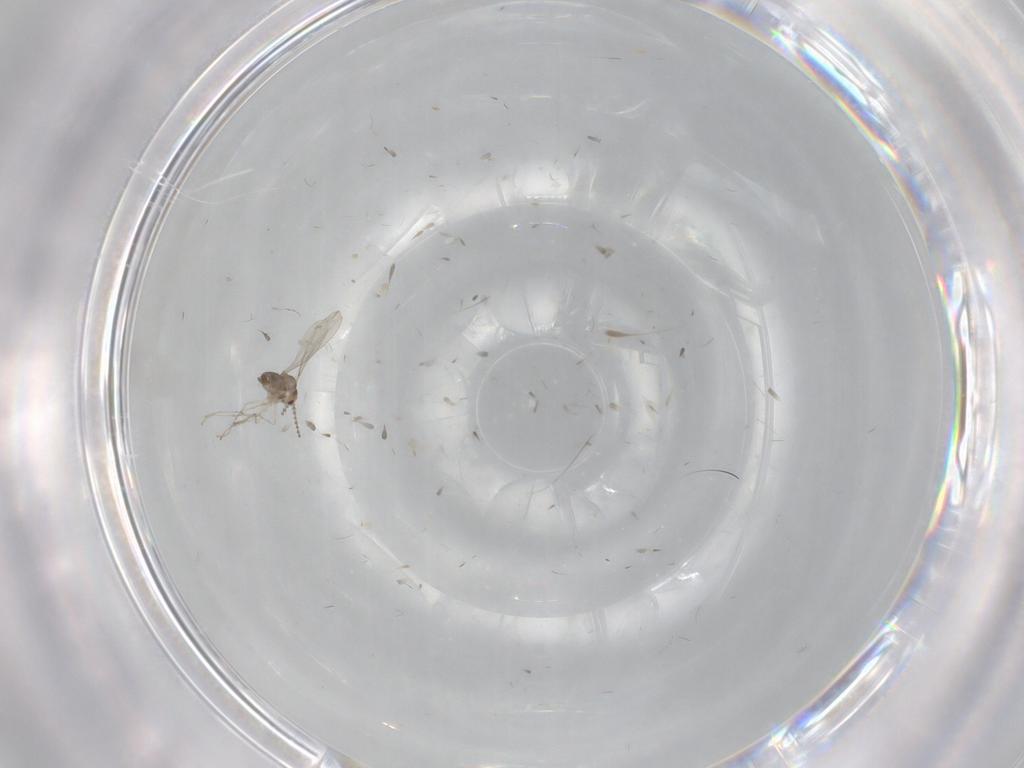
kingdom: Animalia
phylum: Arthropoda
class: Insecta
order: Diptera
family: Cecidomyiidae
